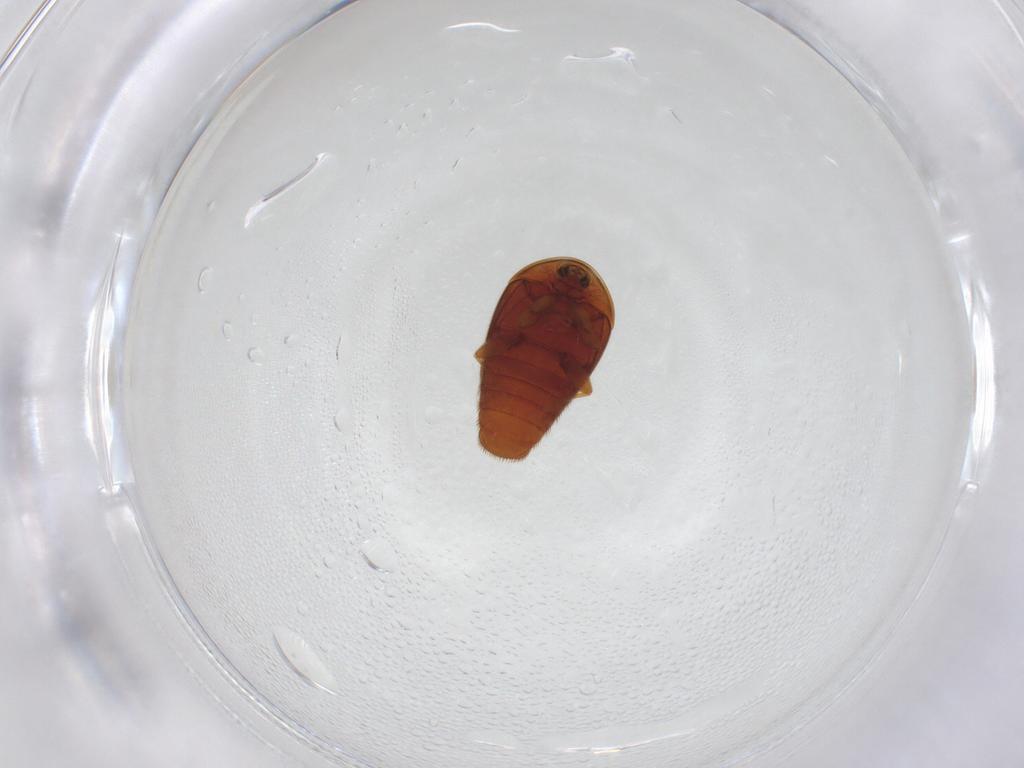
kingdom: Animalia
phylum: Arthropoda
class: Insecta
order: Coleoptera
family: Corylophidae
